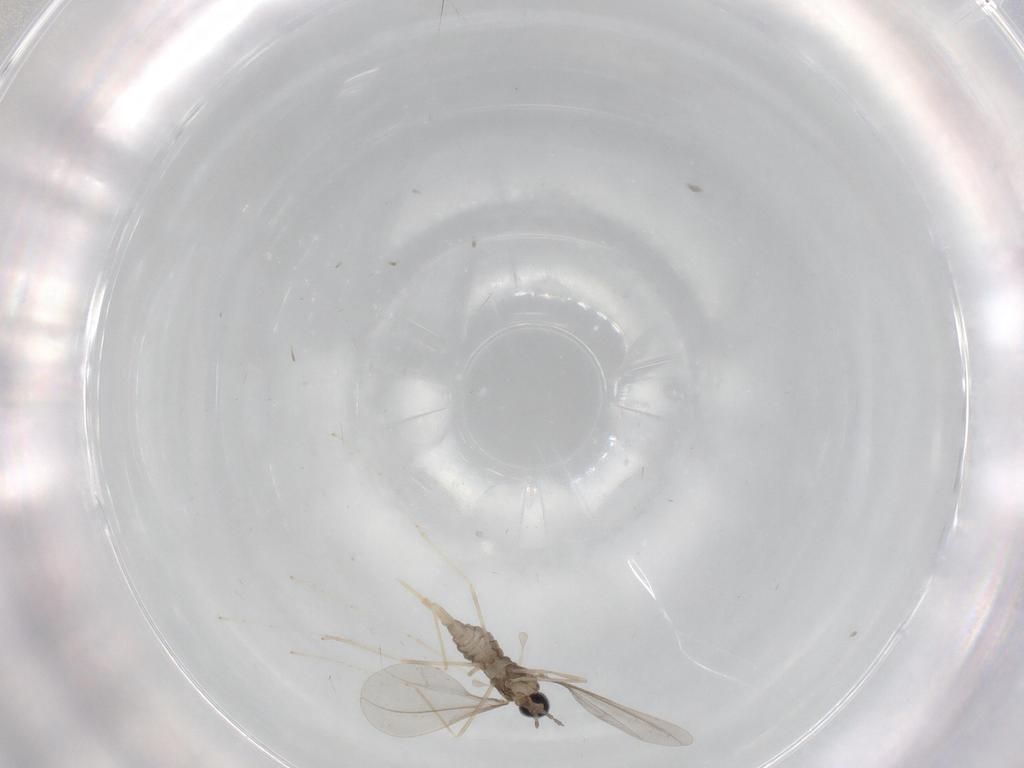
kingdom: Animalia
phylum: Arthropoda
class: Insecta
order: Diptera
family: Cecidomyiidae
